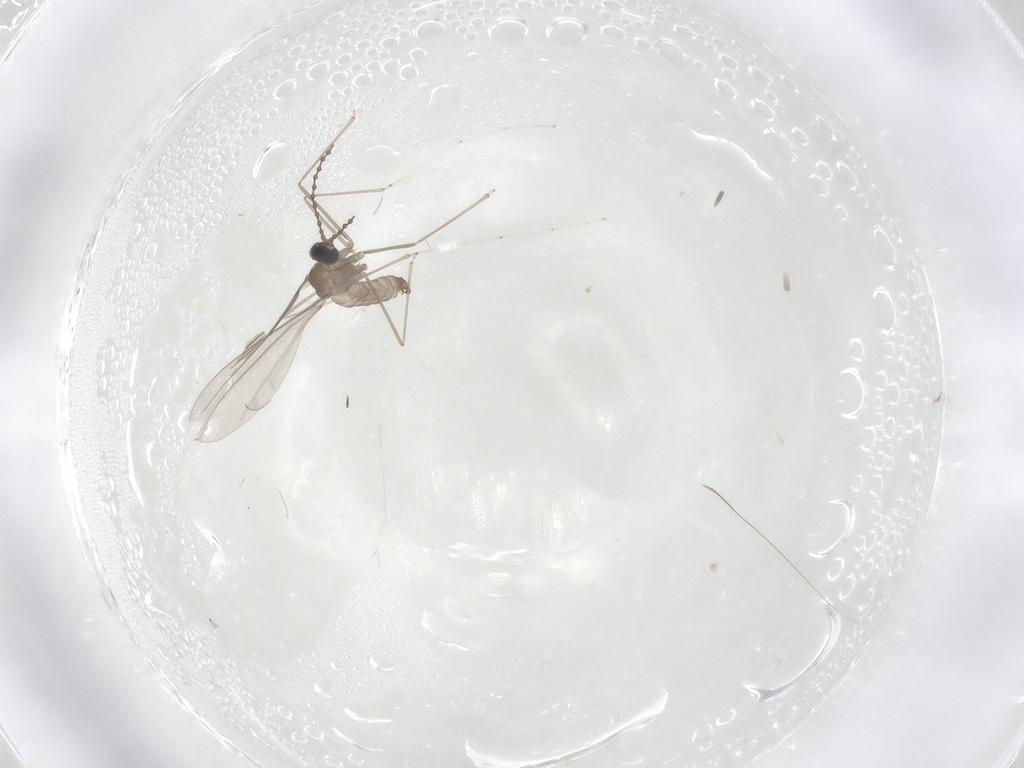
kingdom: Animalia
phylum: Arthropoda
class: Insecta
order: Diptera
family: Cecidomyiidae
